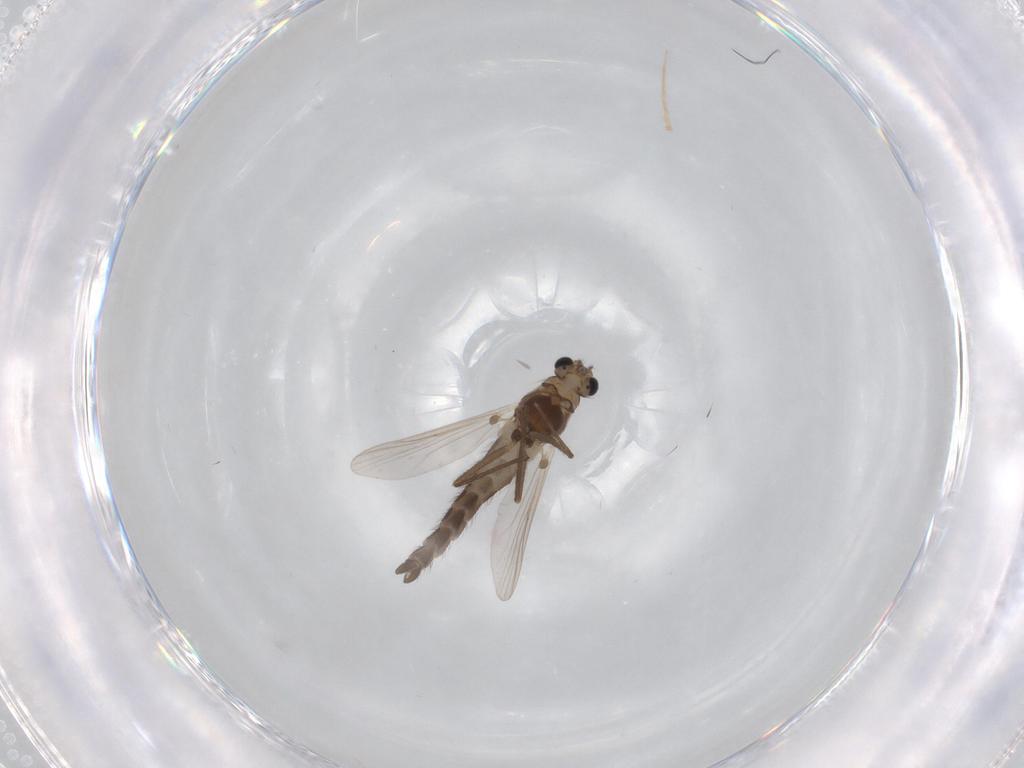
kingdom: Animalia
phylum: Arthropoda
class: Insecta
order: Diptera
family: Chironomidae
